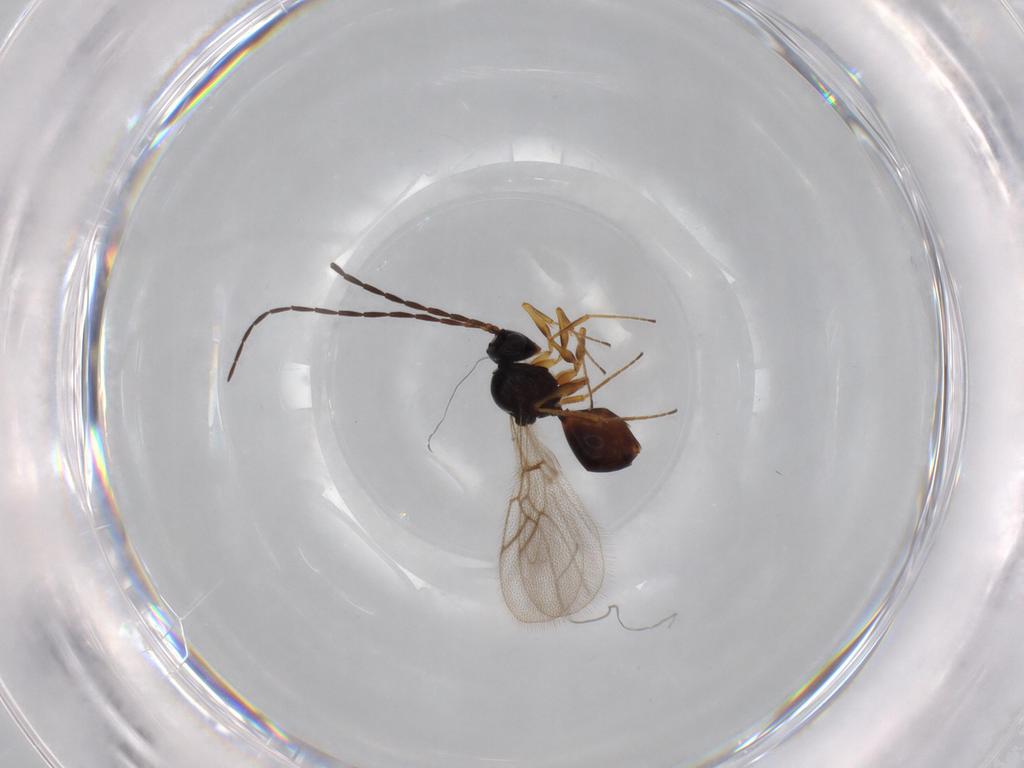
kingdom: Animalia
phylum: Arthropoda
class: Insecta
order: Hymenoptera
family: Figitidae
